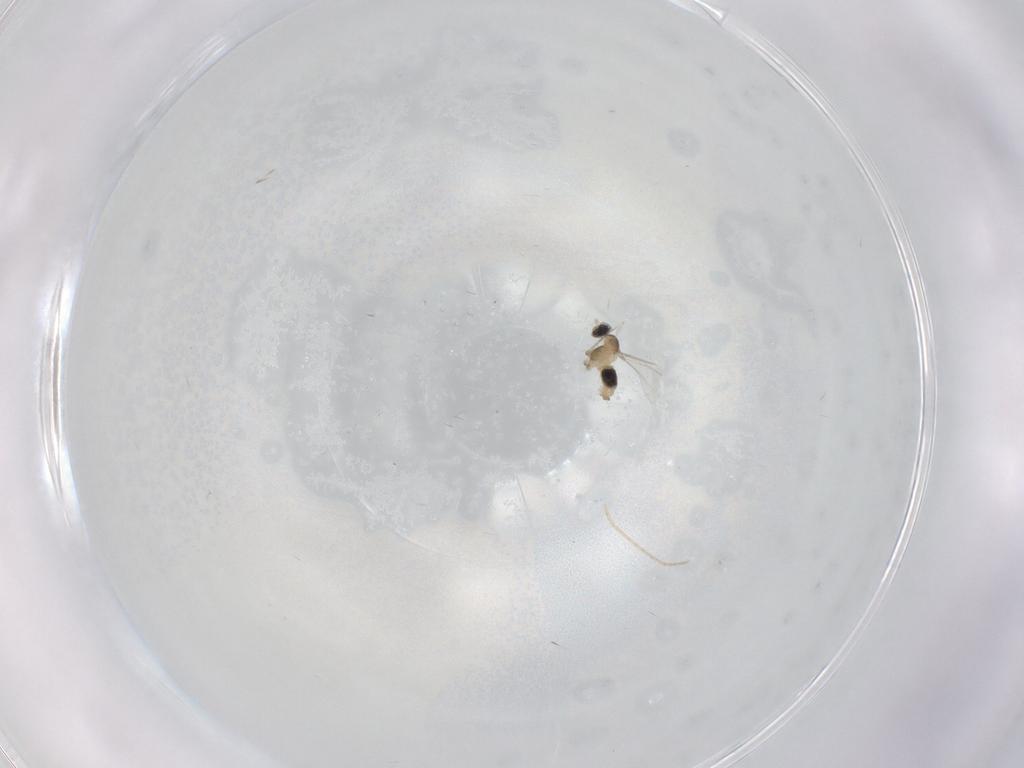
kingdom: Animalia
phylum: Arthropoda
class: Insecta
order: Diptera
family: Cecidomyiidae
